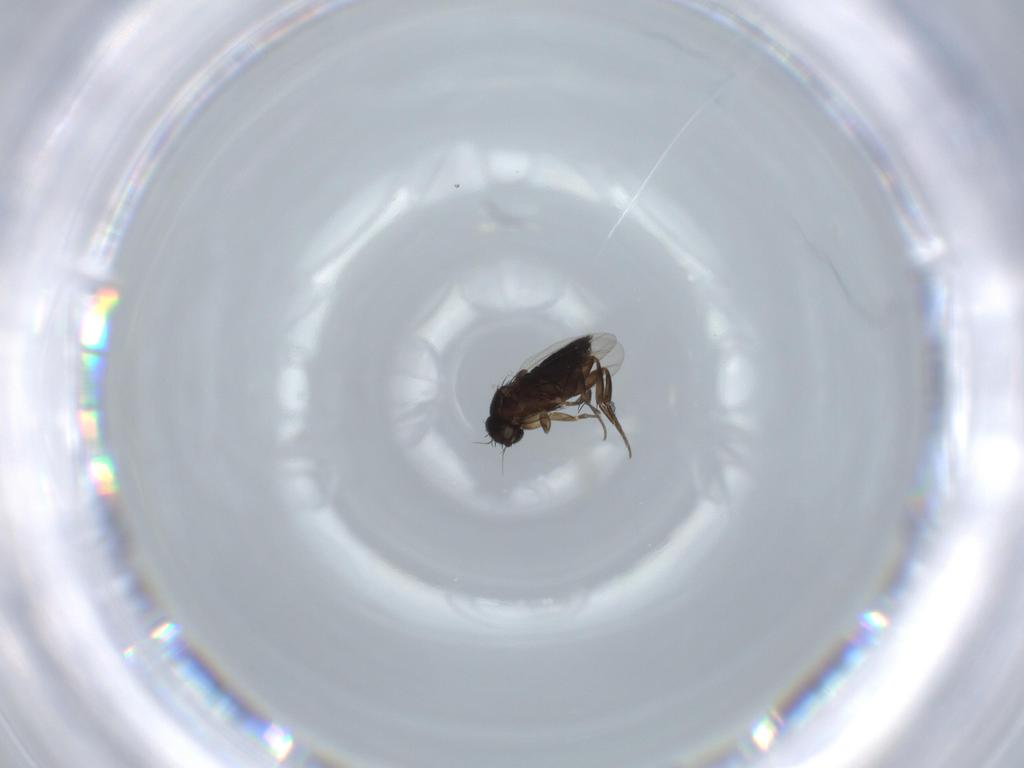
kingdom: Animalia
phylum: Arthropoda
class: Insecta
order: Diptera
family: Phoridae
